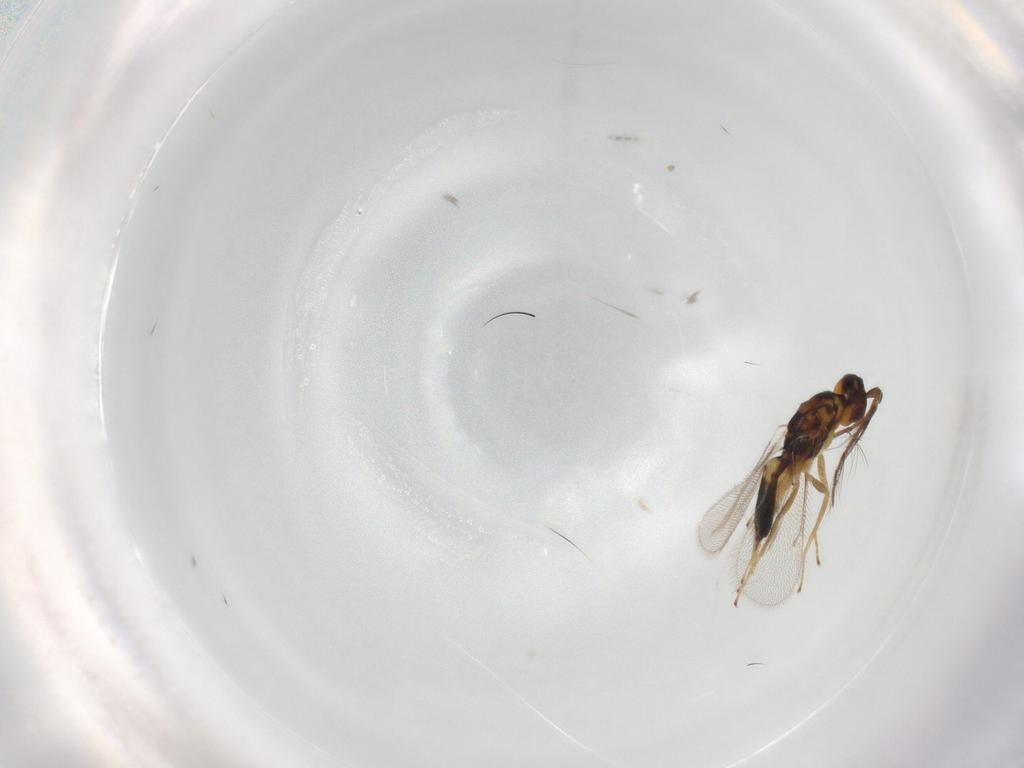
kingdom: Animalia
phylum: Arthropoda
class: Insecta
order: Hymenoptera
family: Eulophidae
